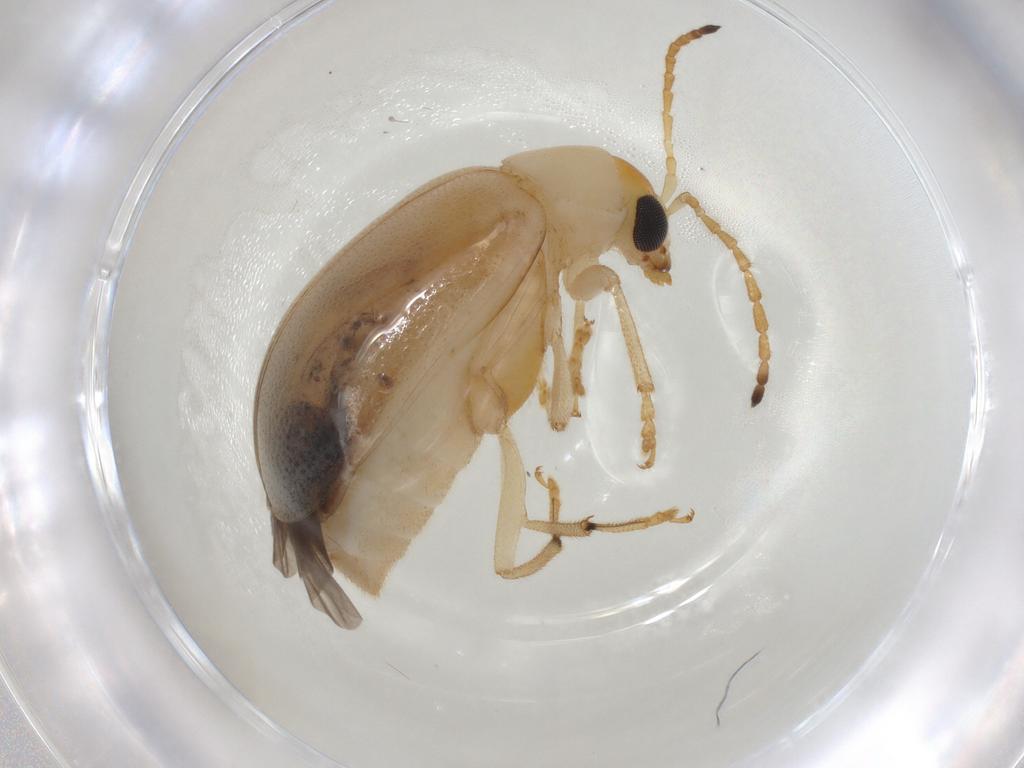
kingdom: Animalia
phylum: Arthropoda
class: Insecta
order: Coleoptera
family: Chrysomelidae
